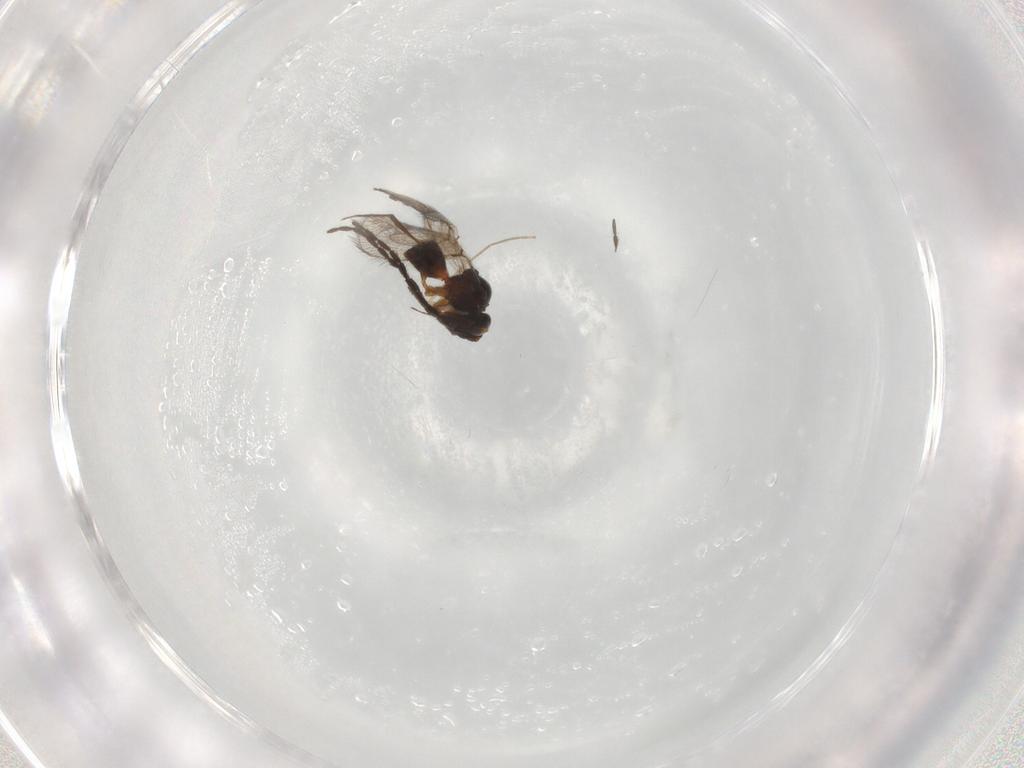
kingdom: Animalia
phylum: Arthropoda
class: Insecta
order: Hymenoptera
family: Figitidae
